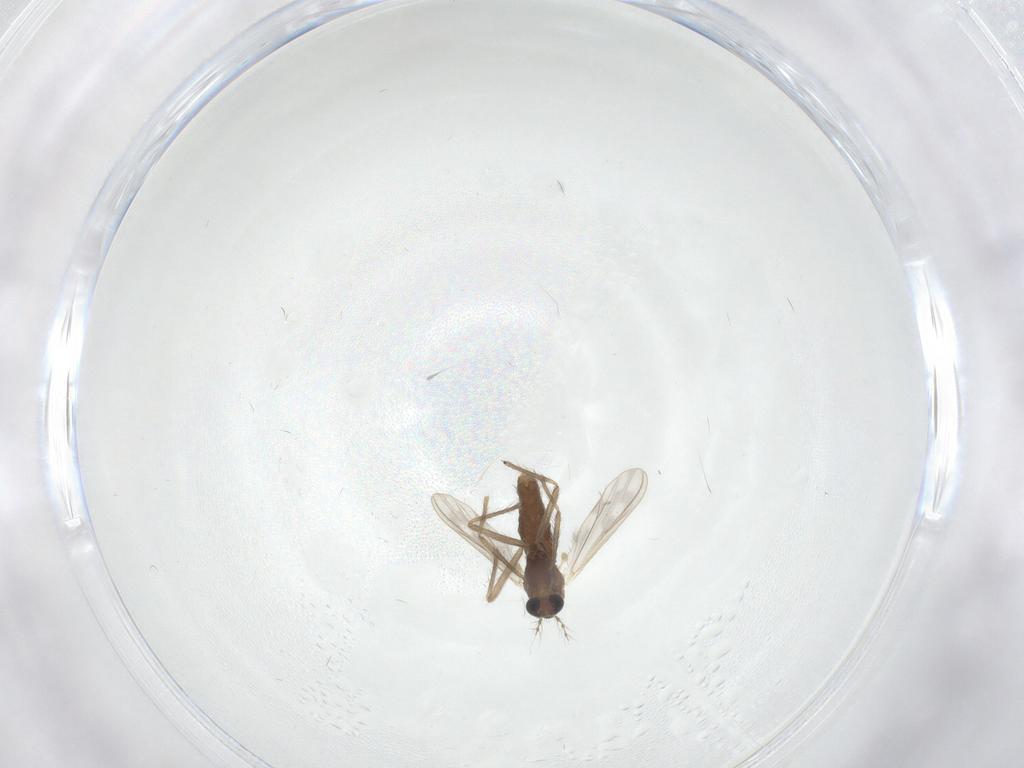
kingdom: Animalia
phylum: Arthropoda
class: Insecta
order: Diptera
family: Chironomidae
